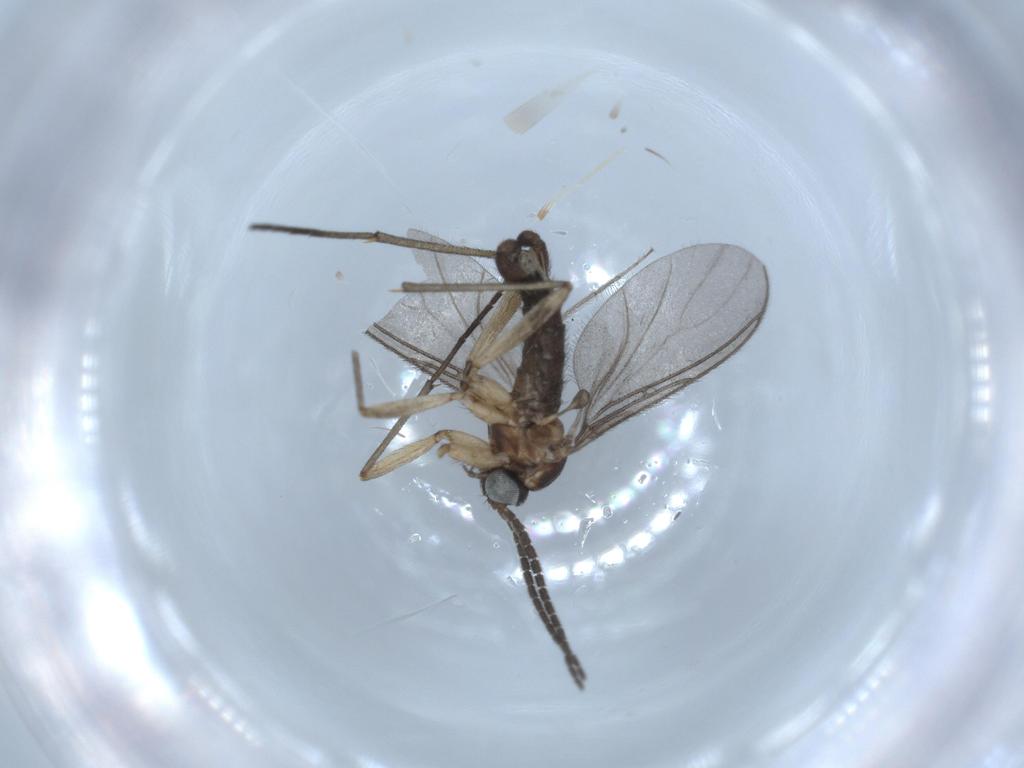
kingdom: Animalia
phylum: Arthropoda
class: Insecta
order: Diptera
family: Sciaridae
